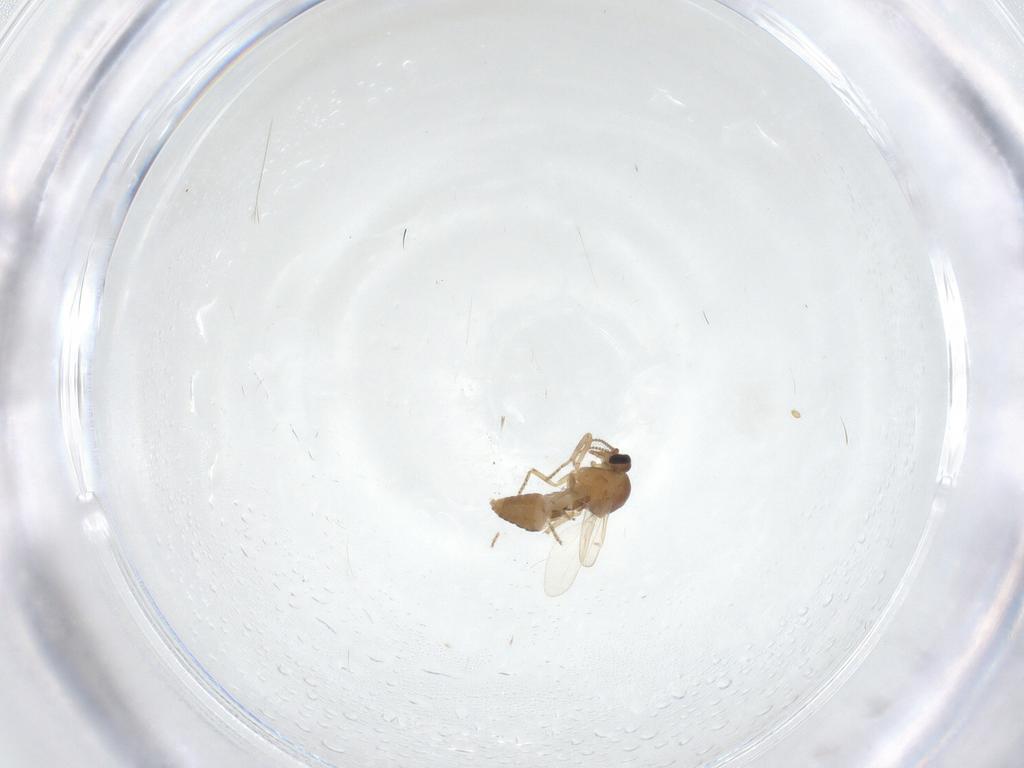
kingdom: Animalia
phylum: Arthropoda
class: Insecta
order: Diptera
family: Ceratopogonidae
